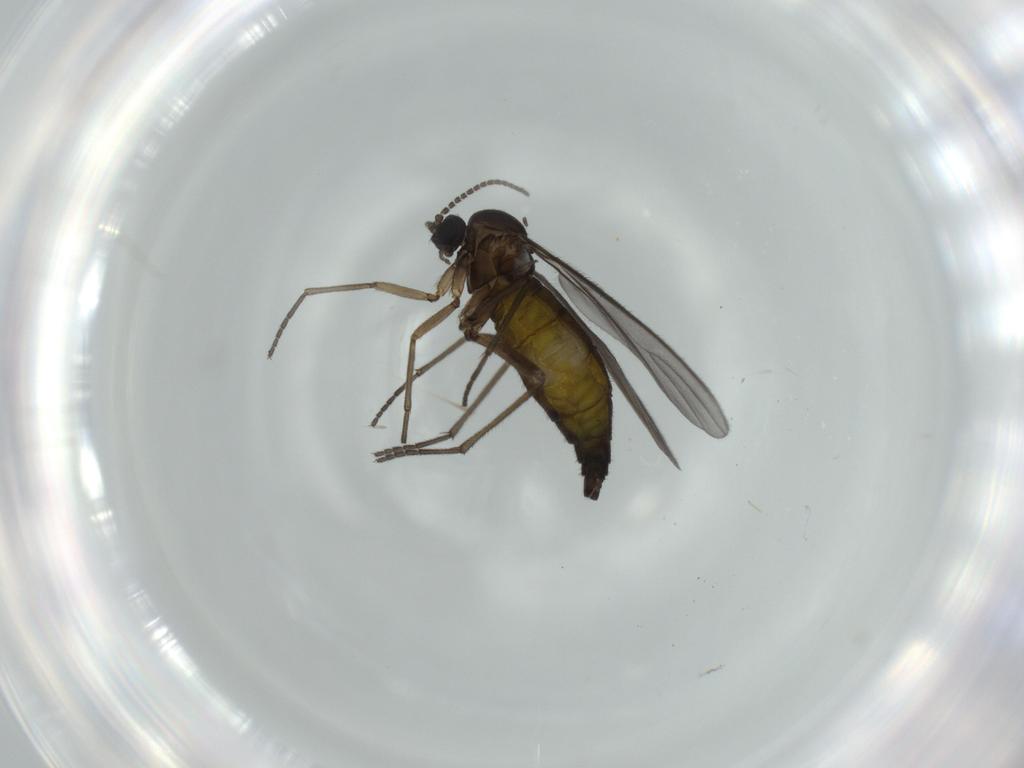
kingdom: Animalia
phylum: Arthropoda
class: Insecta
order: Diptera
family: Sciaridae
